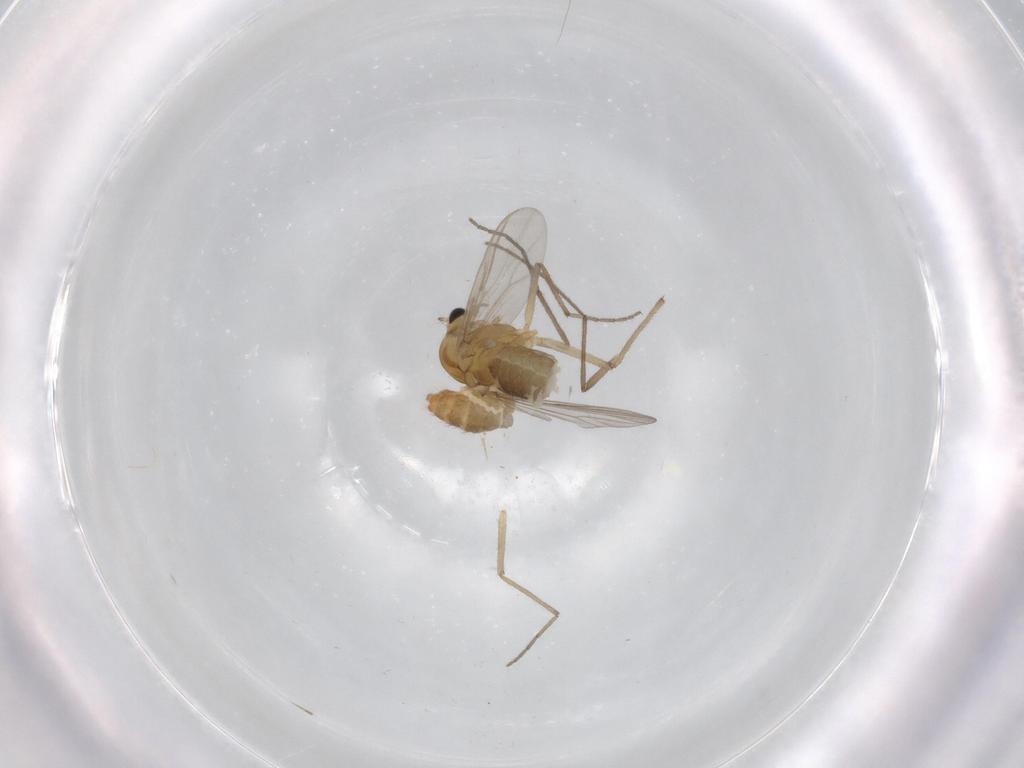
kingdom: Animalia
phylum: Arthropoda
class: Insecta
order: Diptera
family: Chironomidae
